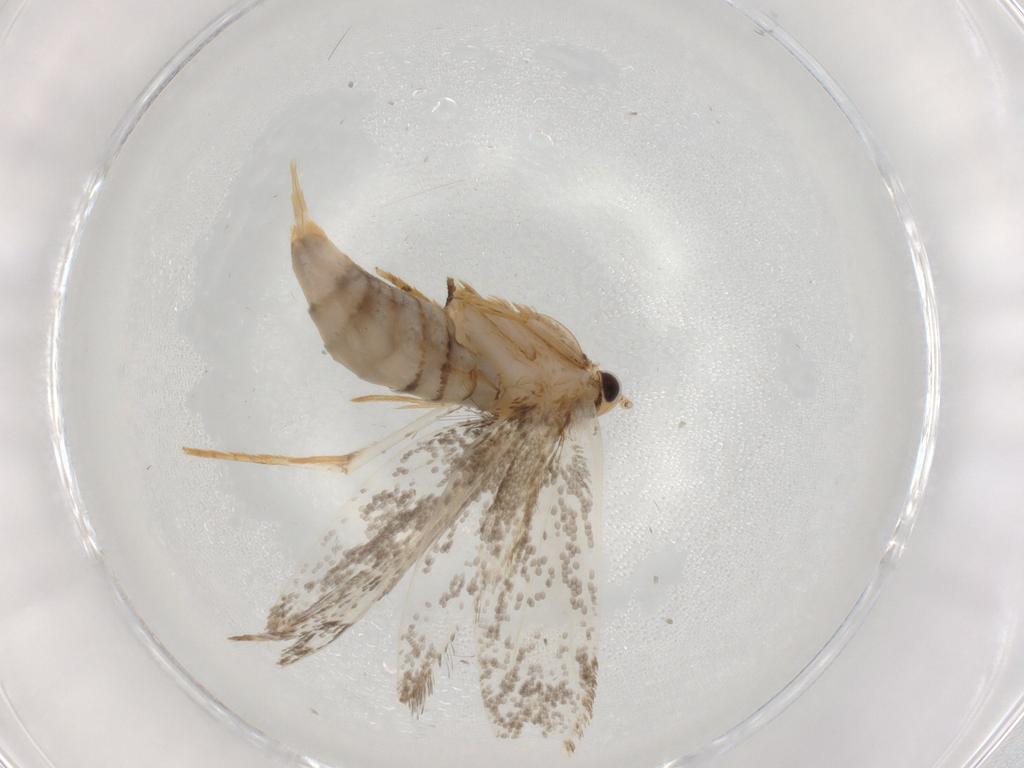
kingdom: Animalia
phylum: Arthropoda
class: Insecta
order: Lepidoptera
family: Tineidae
